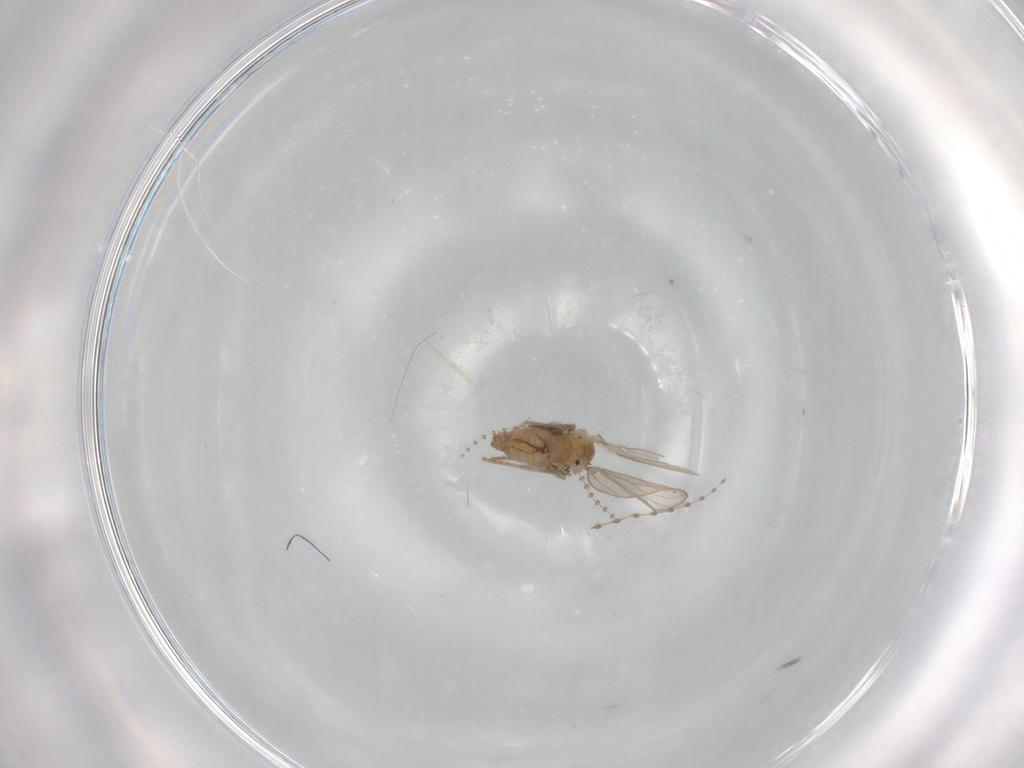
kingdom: Animalia
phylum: Arthropoda
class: Insecta
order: Diptera
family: Psychodidae
